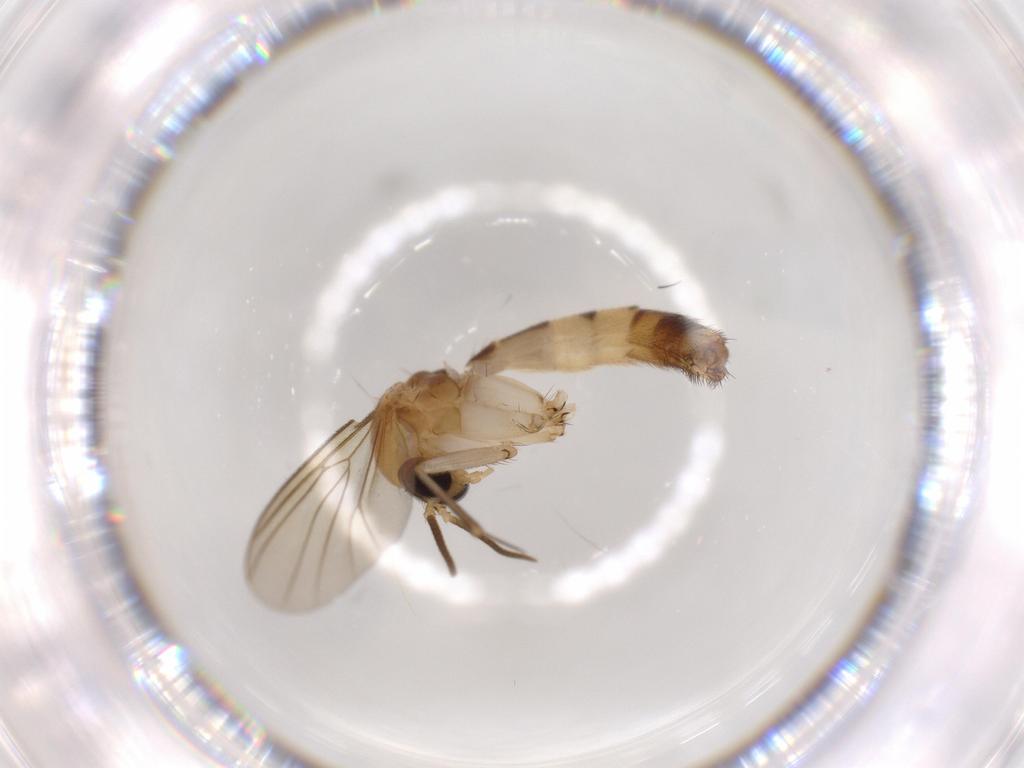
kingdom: Animalia
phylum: Arthropoda
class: Insecta
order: Diptera
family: Cecidomyiidae
